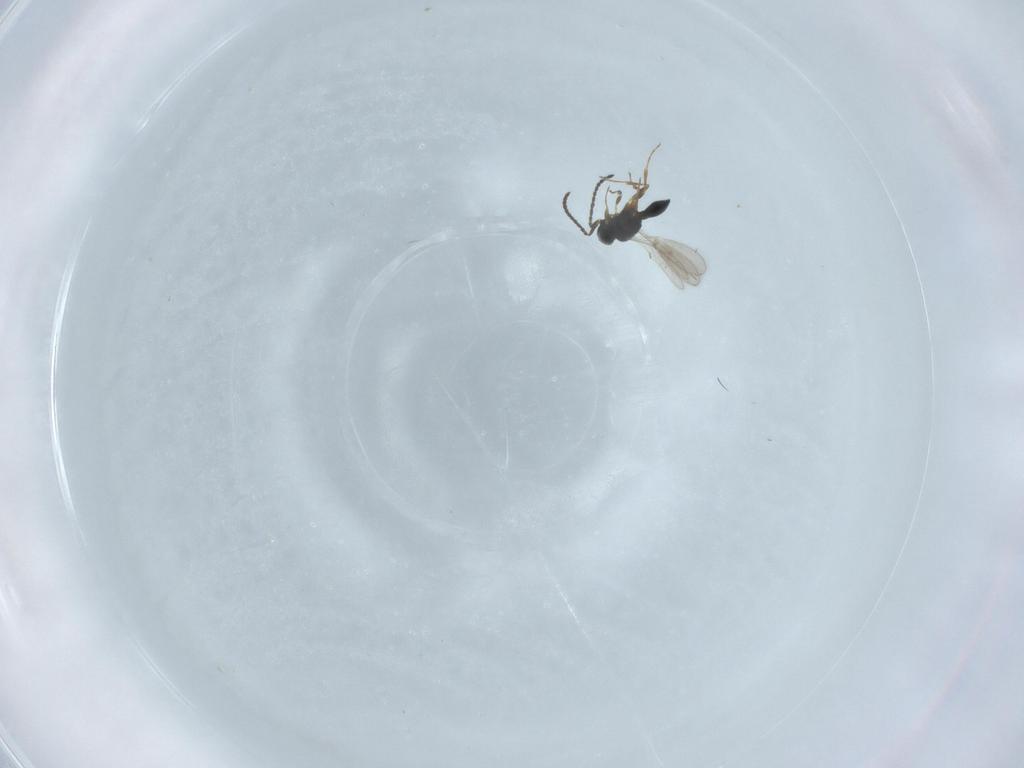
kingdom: Animalia
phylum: Arthropoda
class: Insecta
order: Hymenoptera
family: Scelionidae
